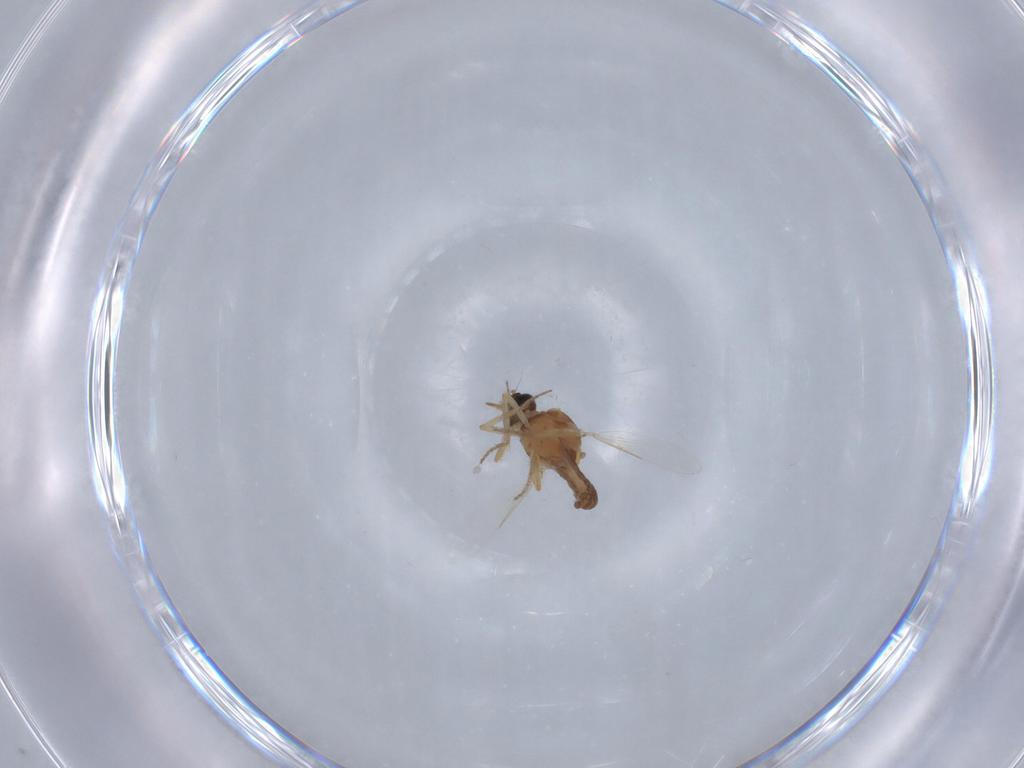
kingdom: Animalia
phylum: Arthropoda
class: Insecta
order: Diptera
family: Ceratopogonidae
